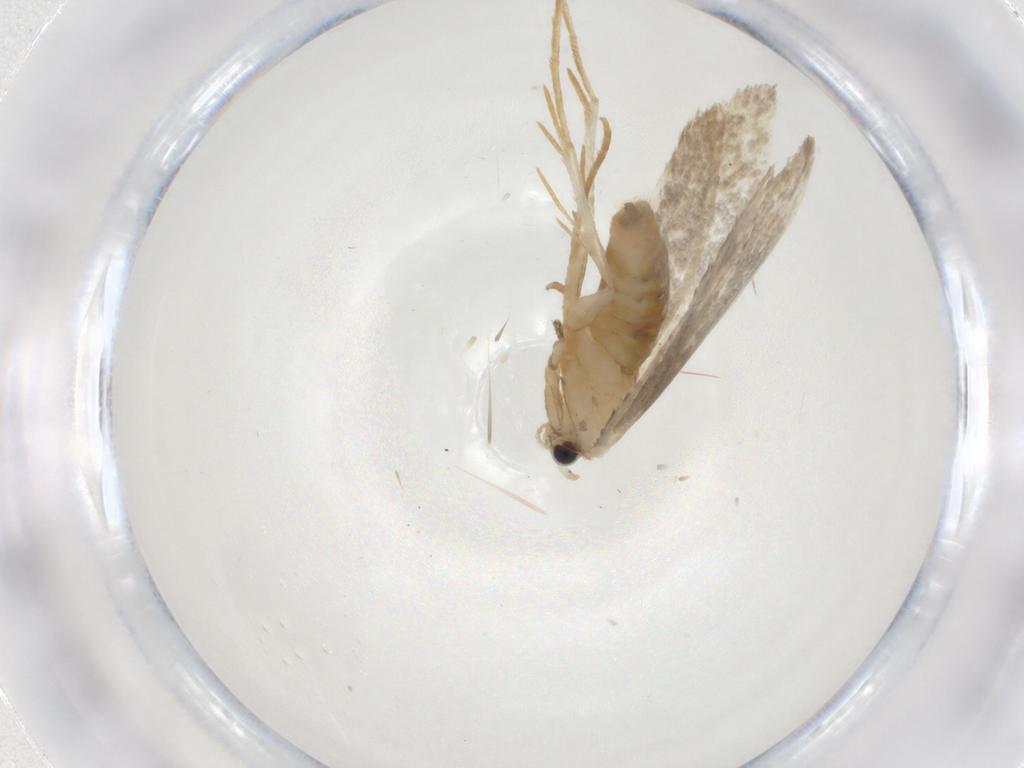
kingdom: Animalia
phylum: Arthropoda
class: Insecta
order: Lepidoptera
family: Tineidae
